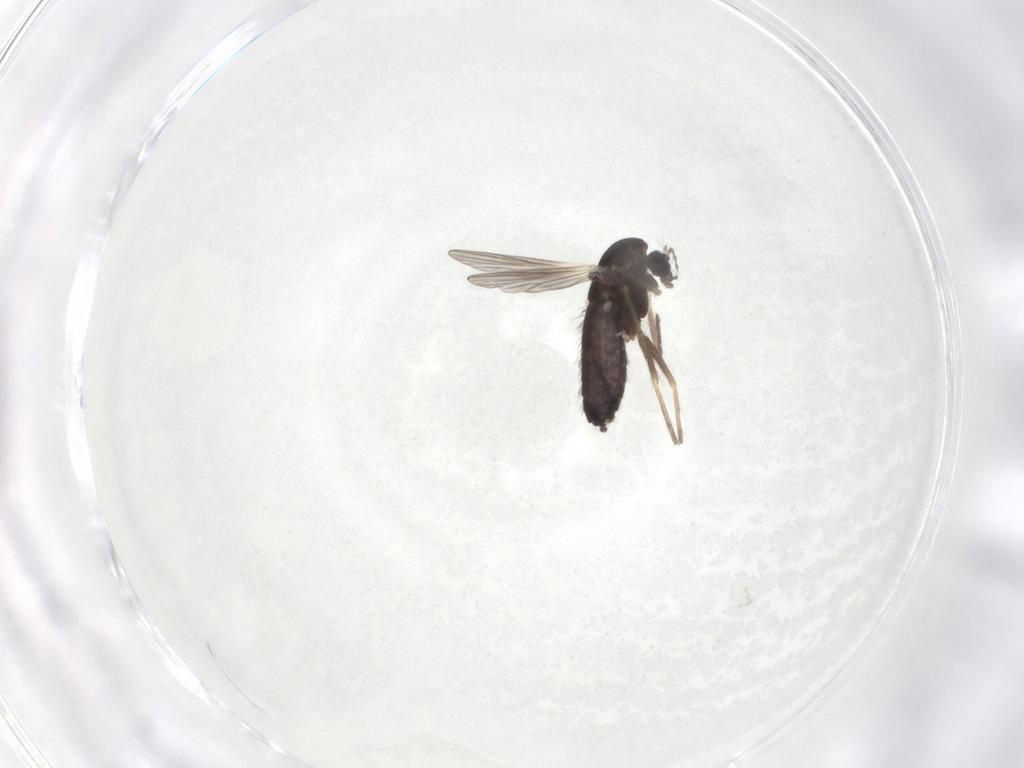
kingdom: Animalia
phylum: Arthropoda
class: Insecta
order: Diptera
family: Chironomidae
